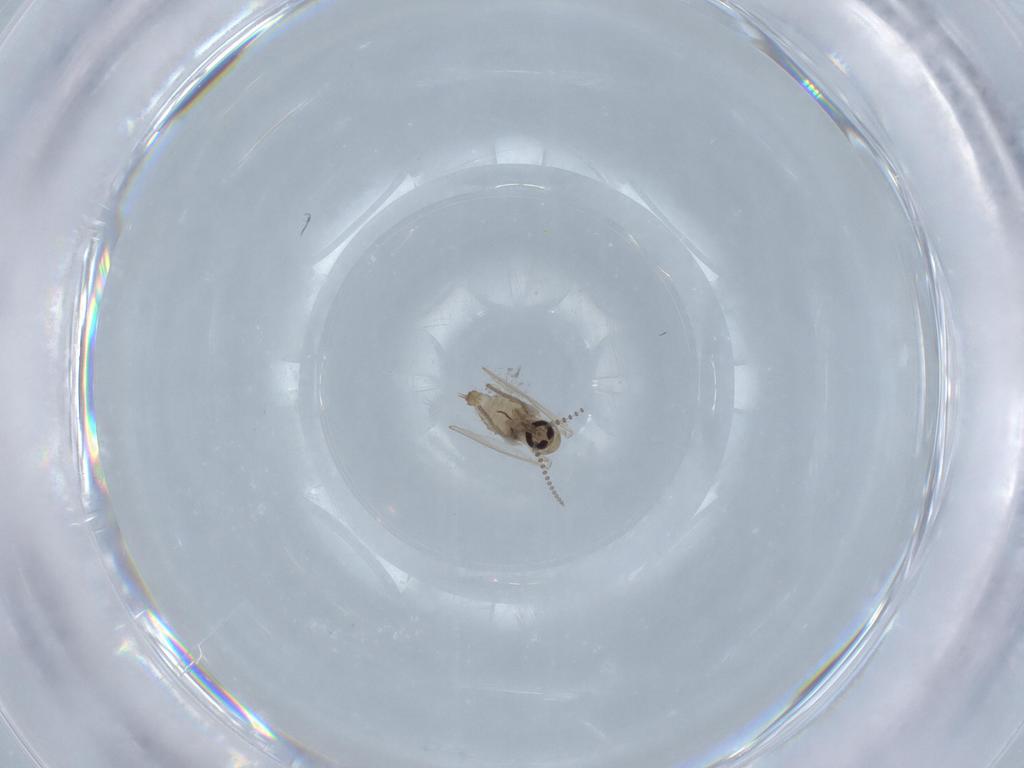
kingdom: Animalia
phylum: Arthropoda
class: Insecta
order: Diptera
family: Psychodidae
